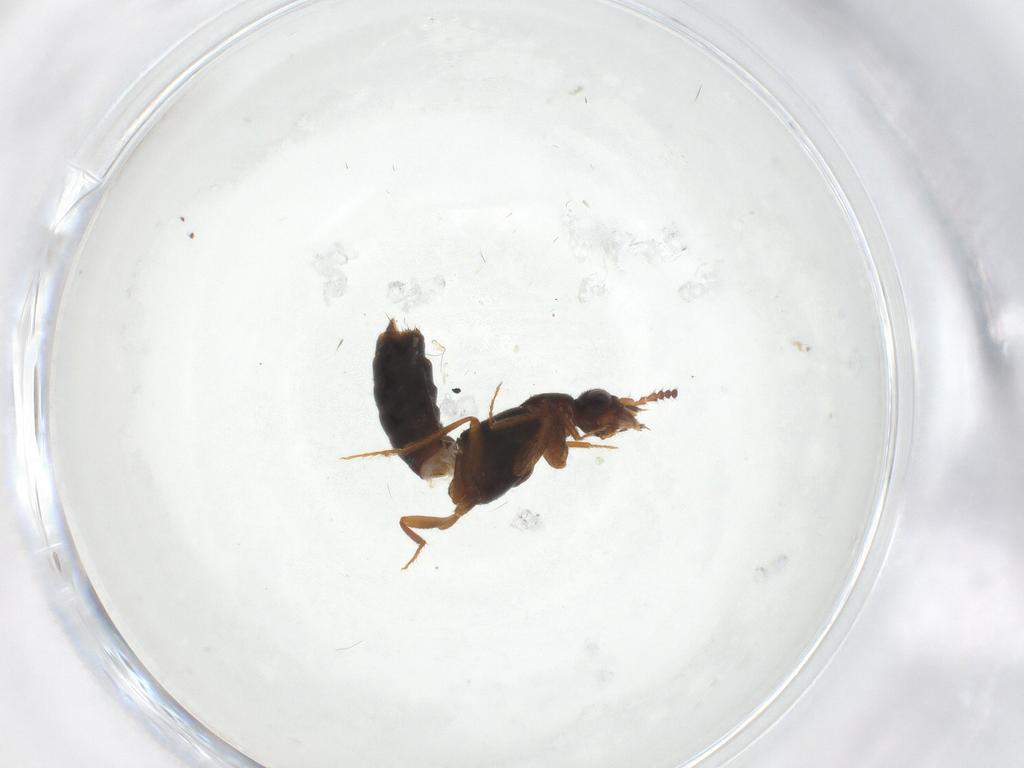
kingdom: Animalia
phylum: Arthropoda
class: Insecta
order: Coleoptera
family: Staphylinidae
